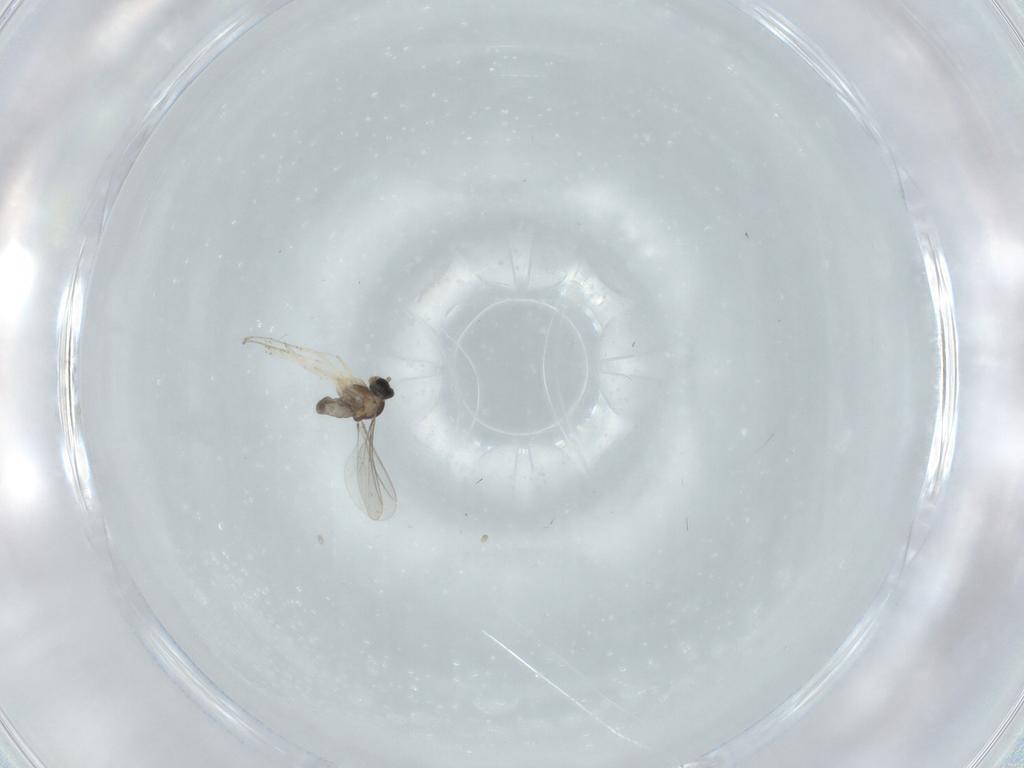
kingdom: Animalia
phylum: Arthropoda
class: Insecta
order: Diptera
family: Cecidomyiidae
